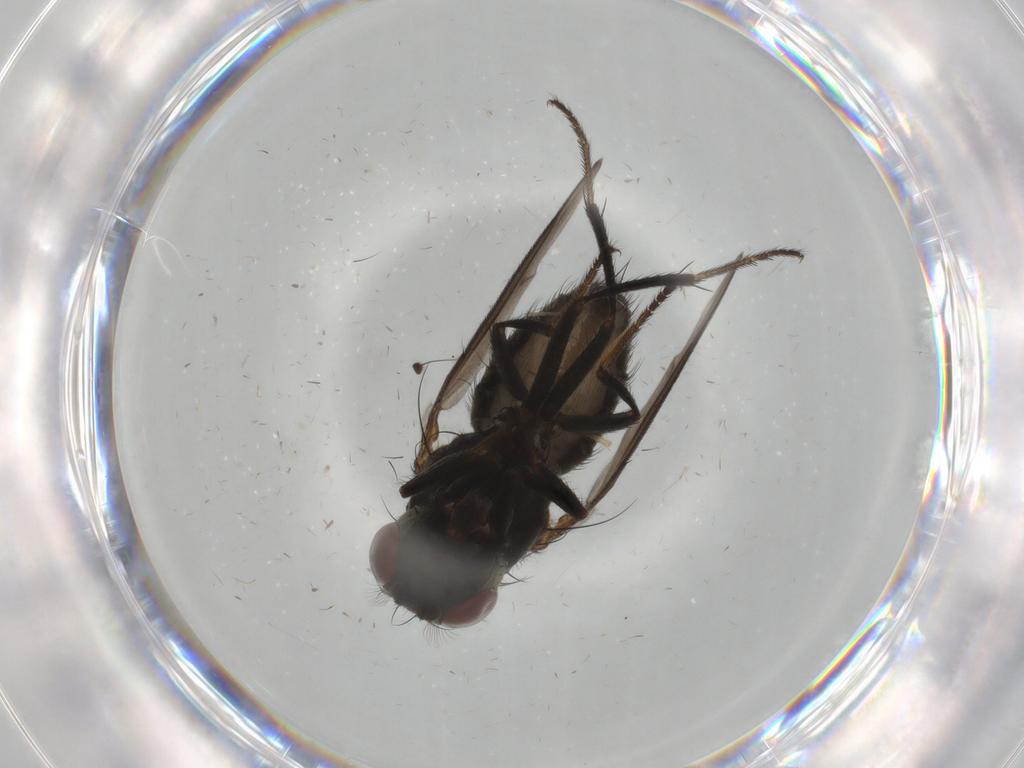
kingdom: Animalia
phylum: Arthropoda
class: Insecta
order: Diptera
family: Ephydridae
